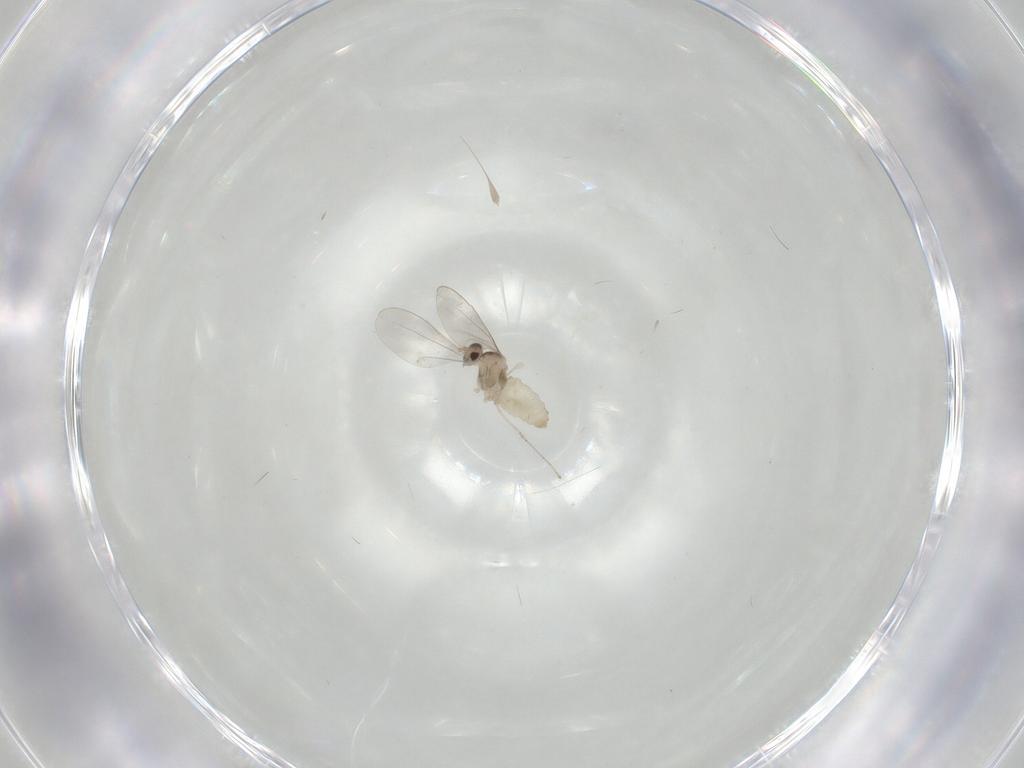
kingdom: Animalia
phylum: Arthropoda
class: Insecta
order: Diptera
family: Cecidomyiidae
